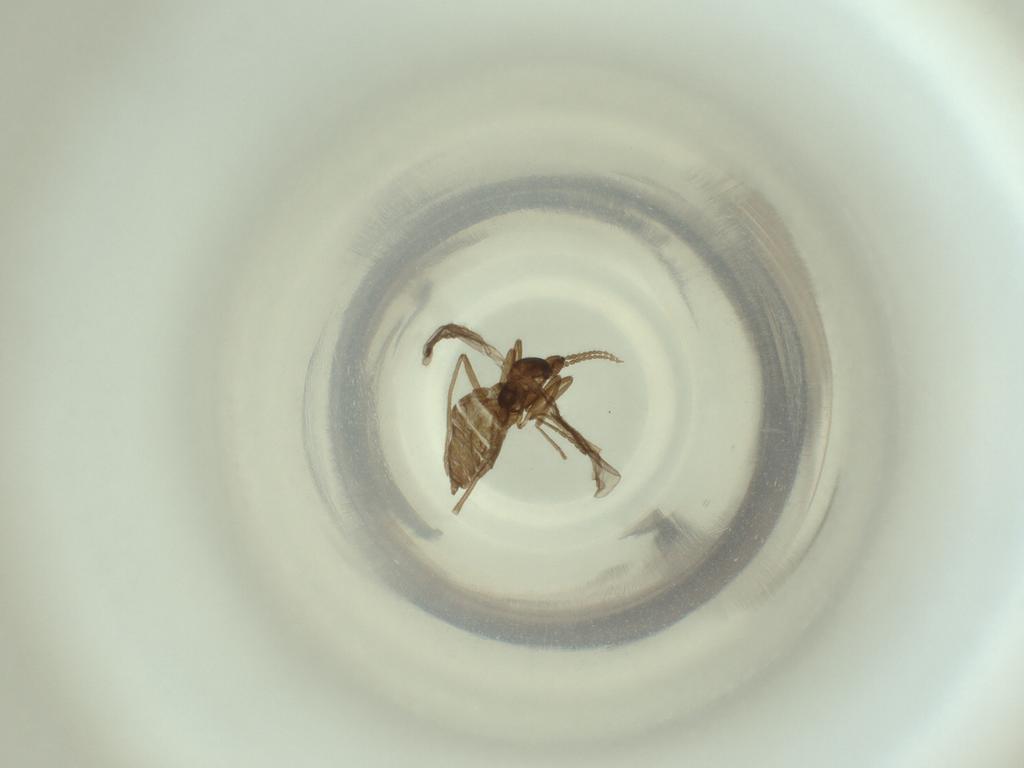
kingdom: Animalia
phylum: Arthropoda
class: Insecta
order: Diptera
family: Cecidomyiidae
